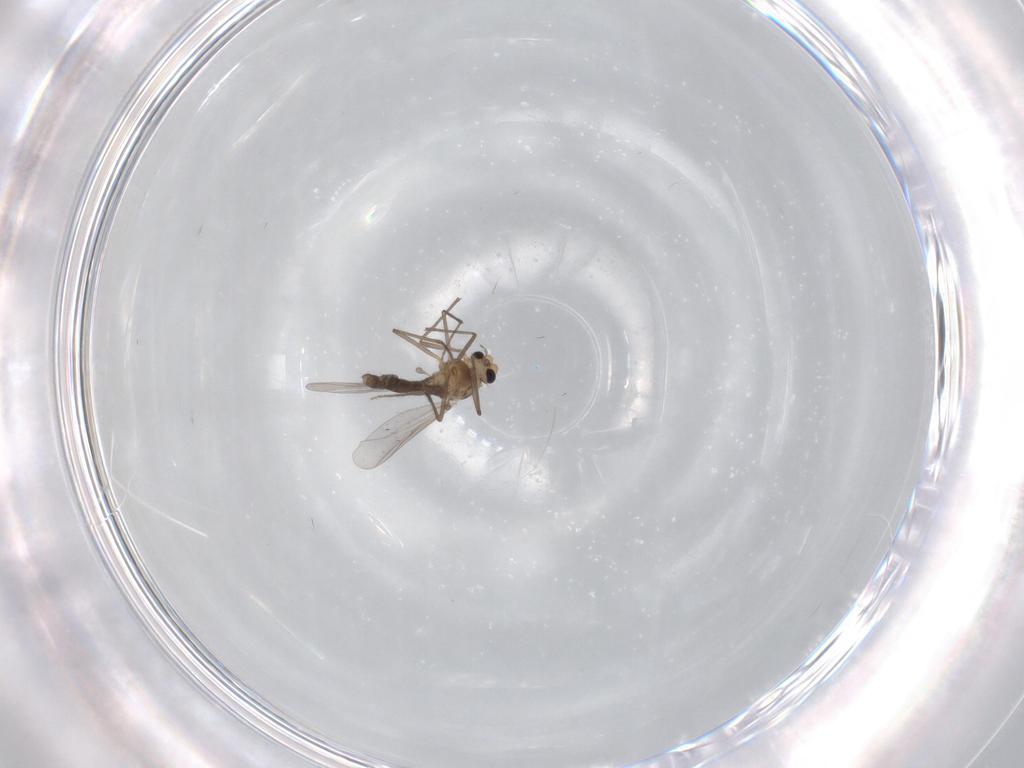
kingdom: Animalia
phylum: Arthropoda
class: Insecta
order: Diptera
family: Chironomidae
